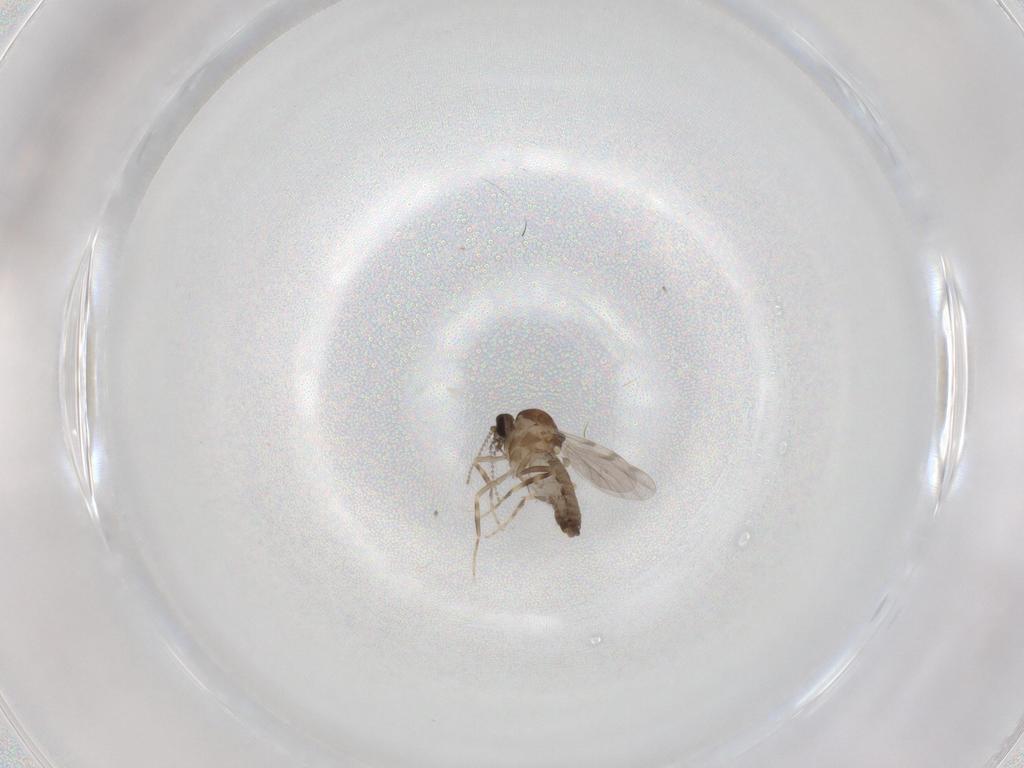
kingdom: Animalia
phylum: Arthropoda
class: Insecta
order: Diptera
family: Ceratopogonidae
